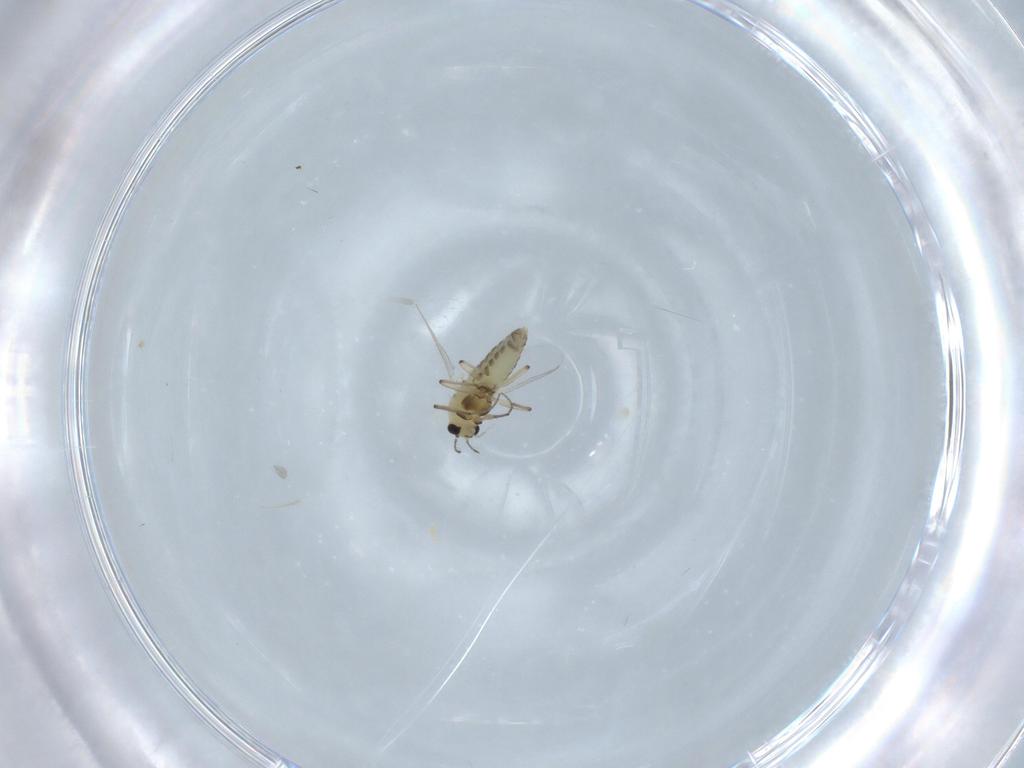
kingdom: Animalia
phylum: Arthropoda
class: Insecta
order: Diptera
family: Chironomidae
